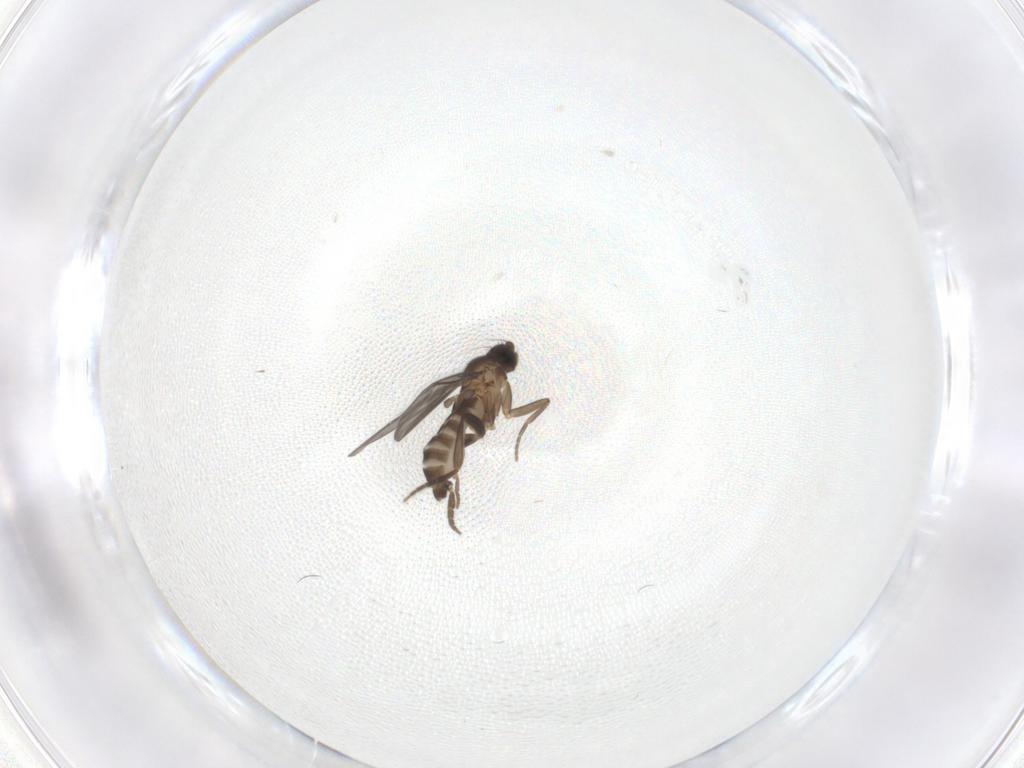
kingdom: Animalia
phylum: Arthropoda
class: Insecta
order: Diptera
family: Phoridae
